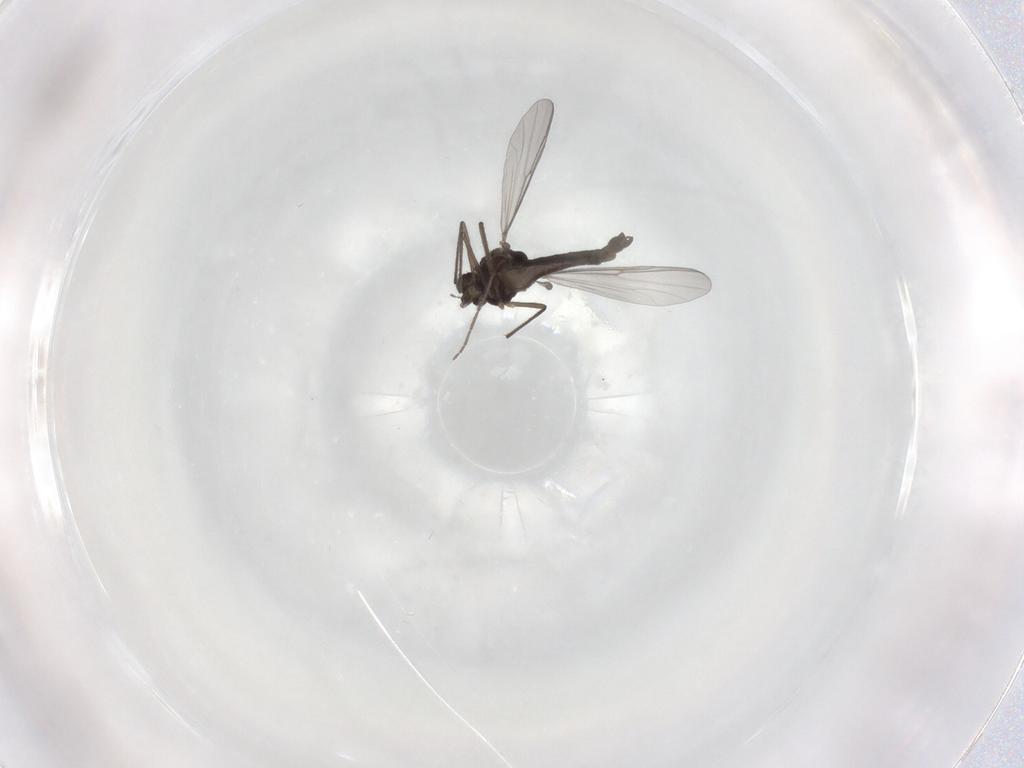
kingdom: Animalia
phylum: Arthropoda
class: Insecta
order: Diptera
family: Chironomidae
